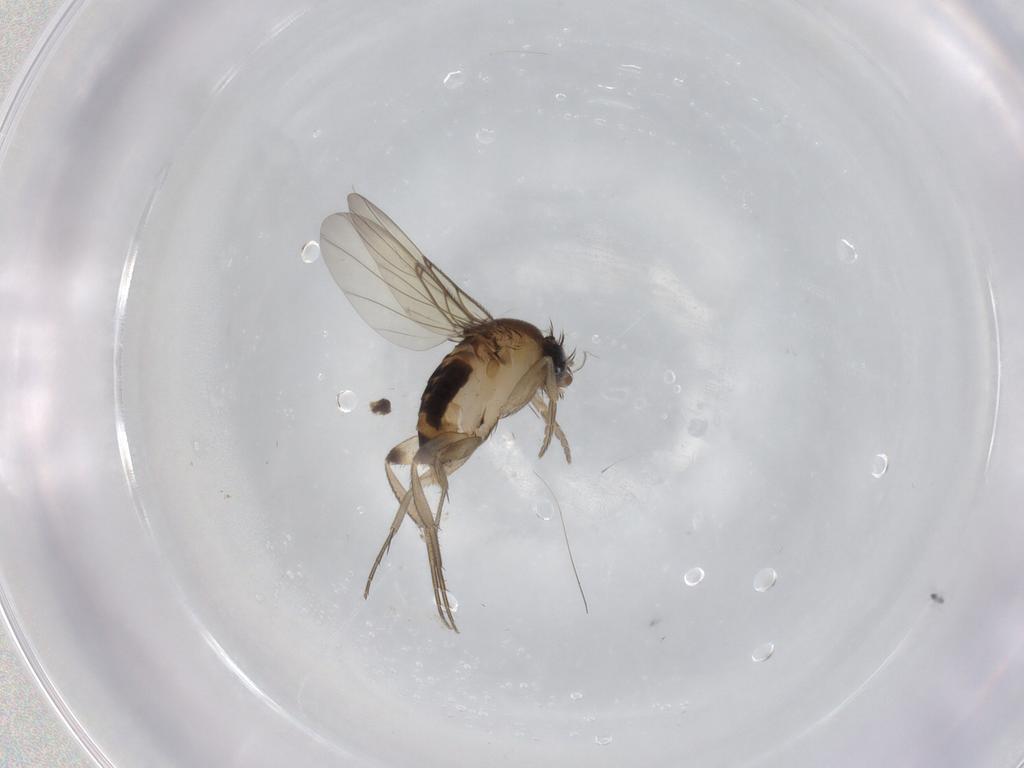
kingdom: Animalia
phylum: Arthropoda
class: Insecta
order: Diptera
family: Phoridae
